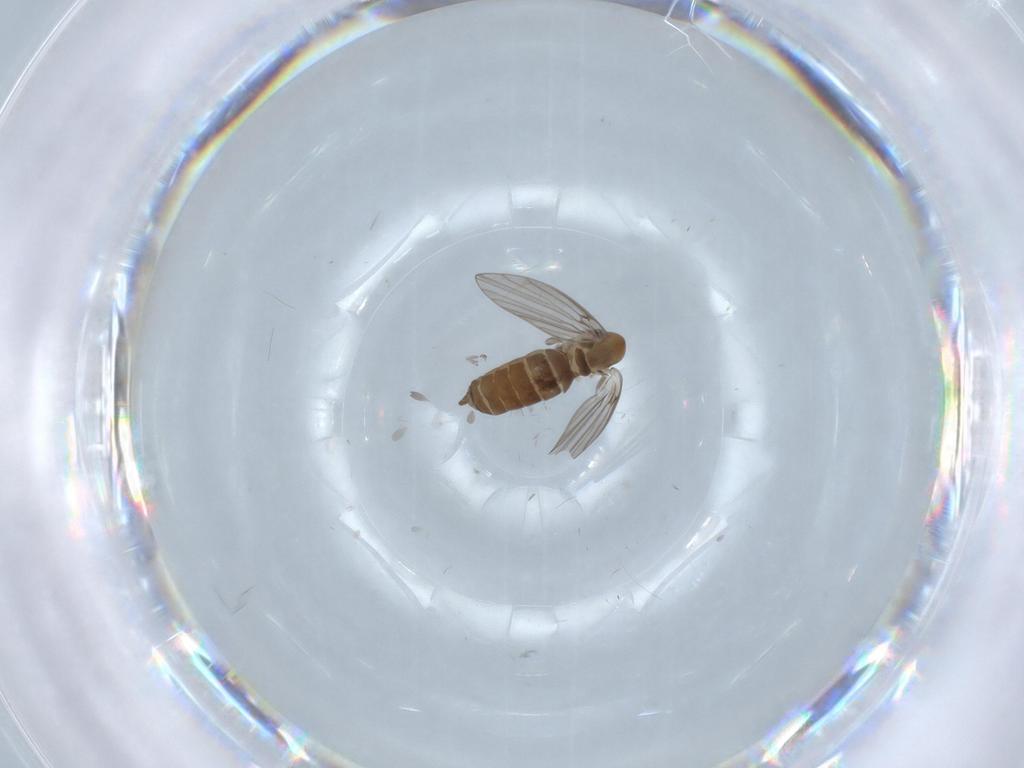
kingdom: Animalia
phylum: Arthropoda
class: Insecta
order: Diptera
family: Psychodidae
